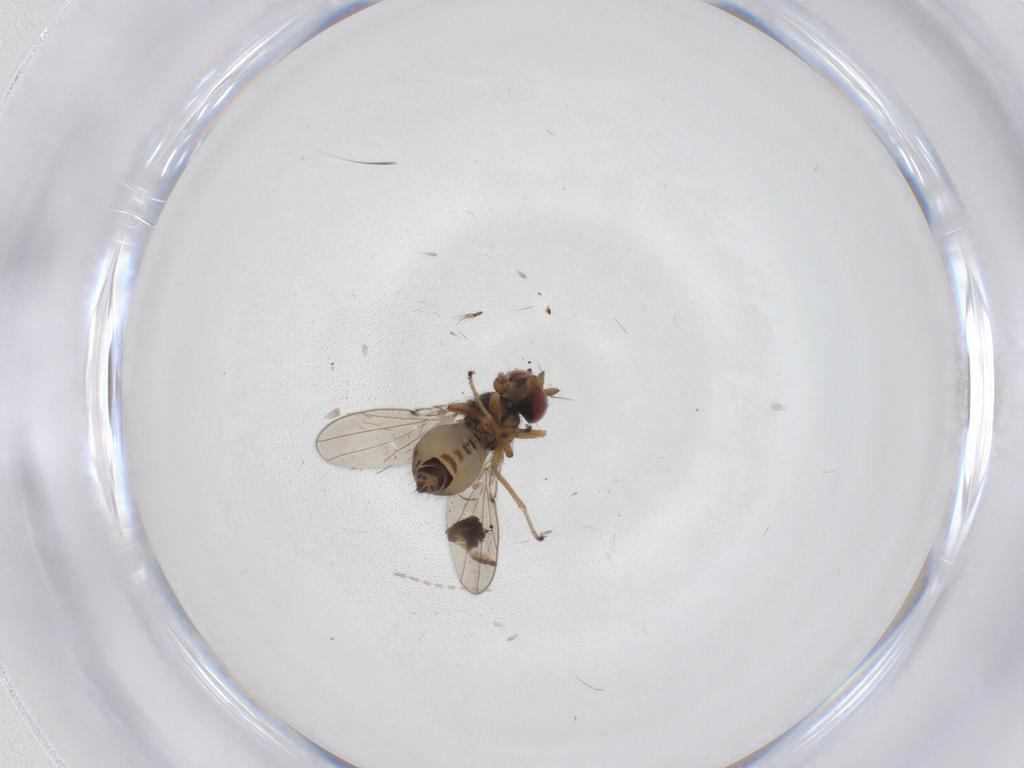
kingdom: Animalia
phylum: Arthropoda
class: Insecta
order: Diptera
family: Ephydridae
